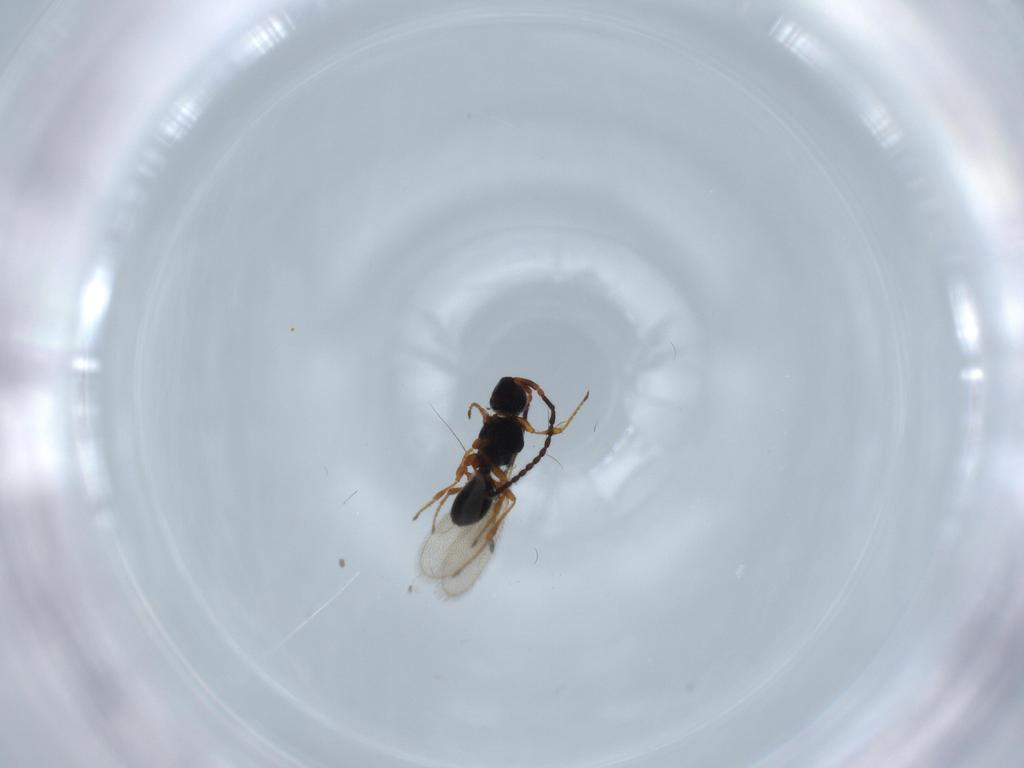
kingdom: Animalia
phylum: Arthropoda
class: Insecta
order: Hymenoptera
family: Diapriidae
